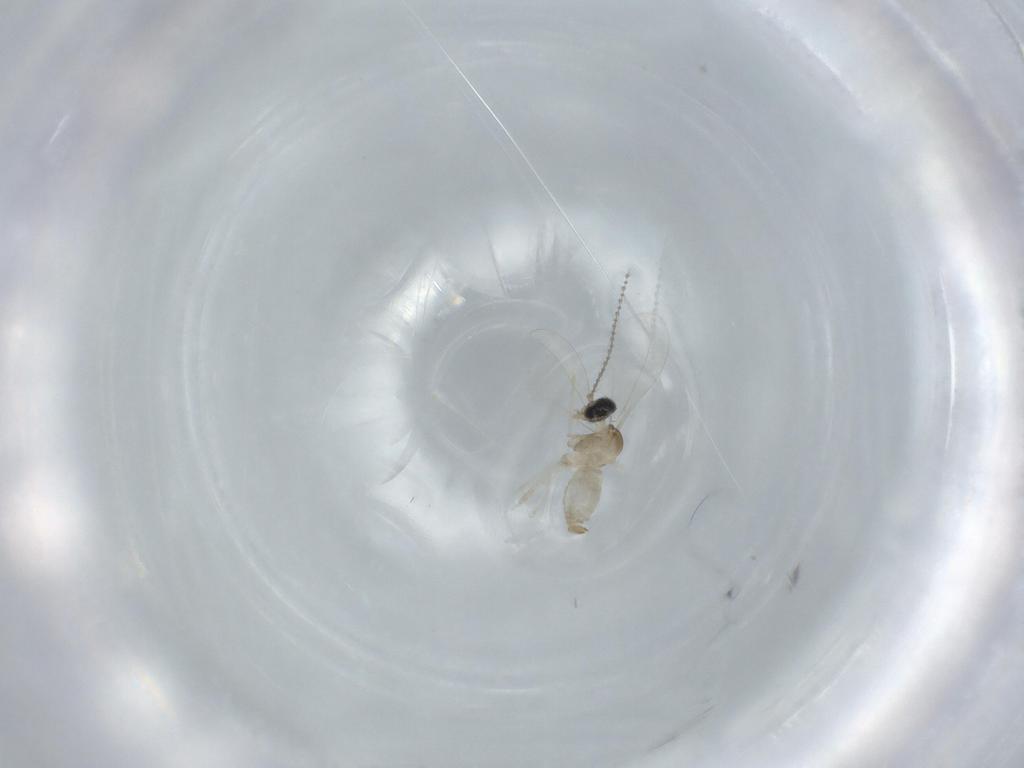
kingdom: Animalia
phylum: Arthropoda
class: Insecta
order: Diptera
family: Cecidomyiidae
